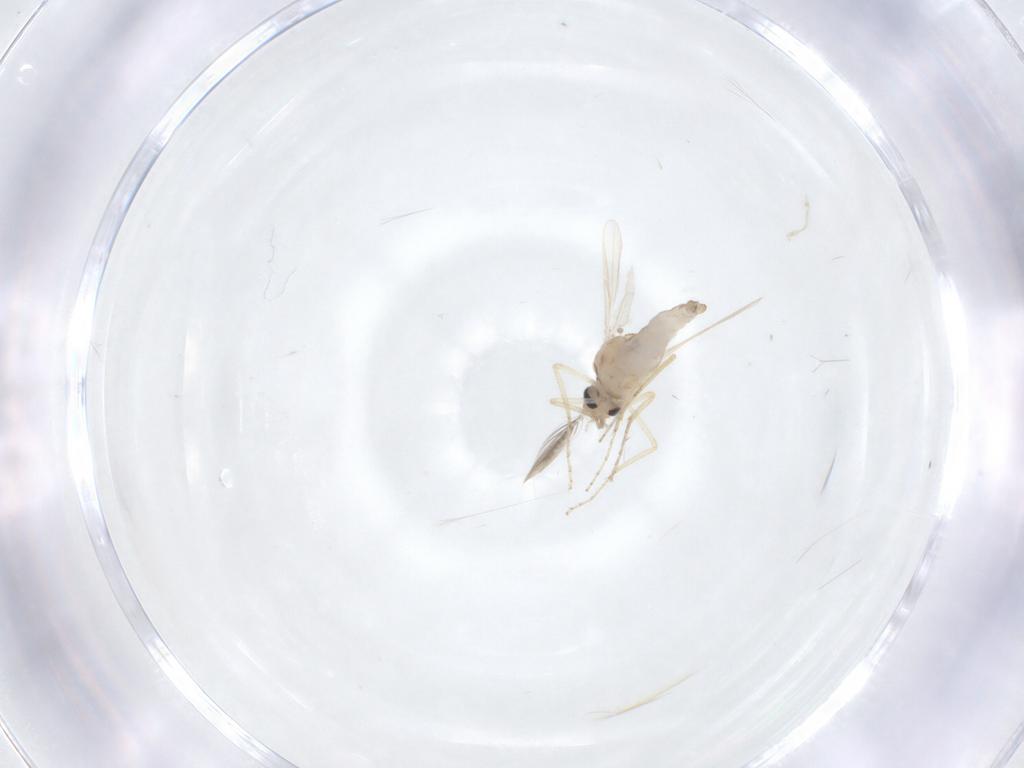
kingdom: Animalia
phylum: Arthropoda
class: Insecta
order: Diptera
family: Ceratopogonidae
